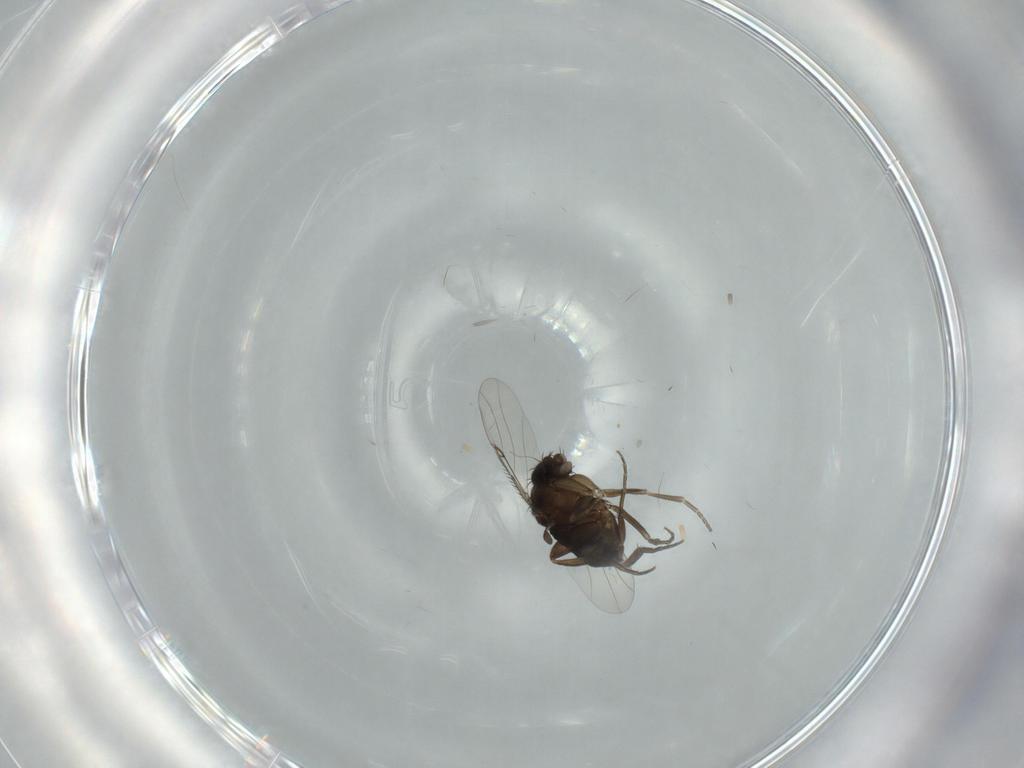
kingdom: Animalia
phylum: Arthropoda
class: Insecta
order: Diptera
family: Phoridae
